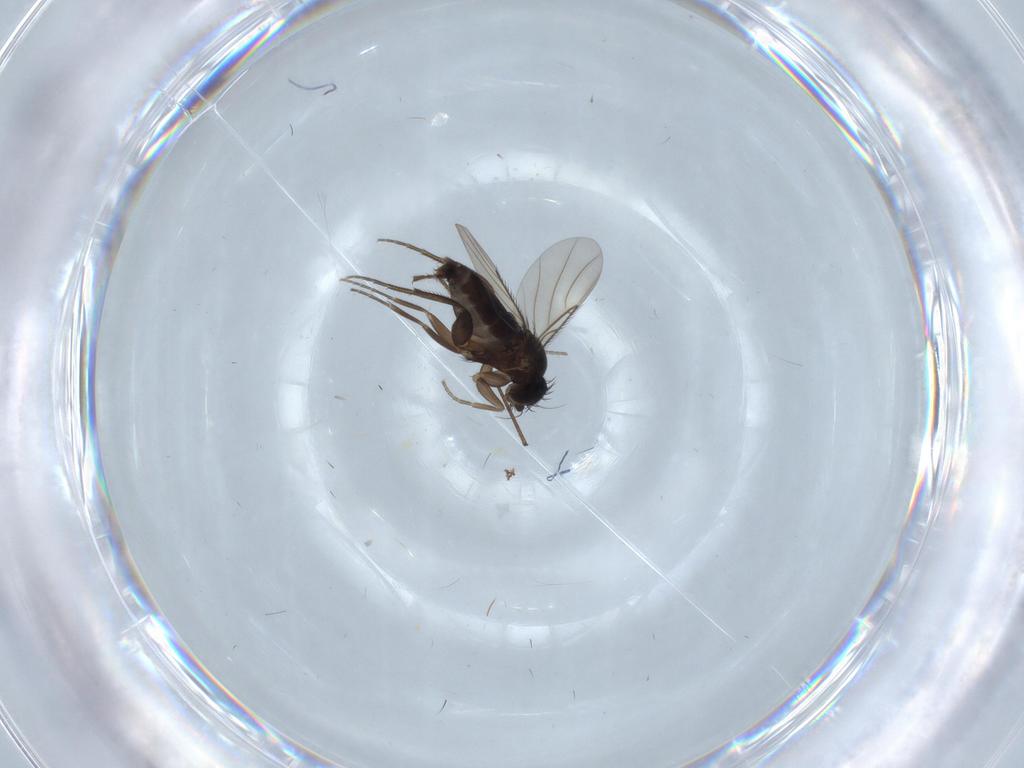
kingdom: Animalia
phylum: Arthropoda
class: Insecta
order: Diptera
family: Phoridae
